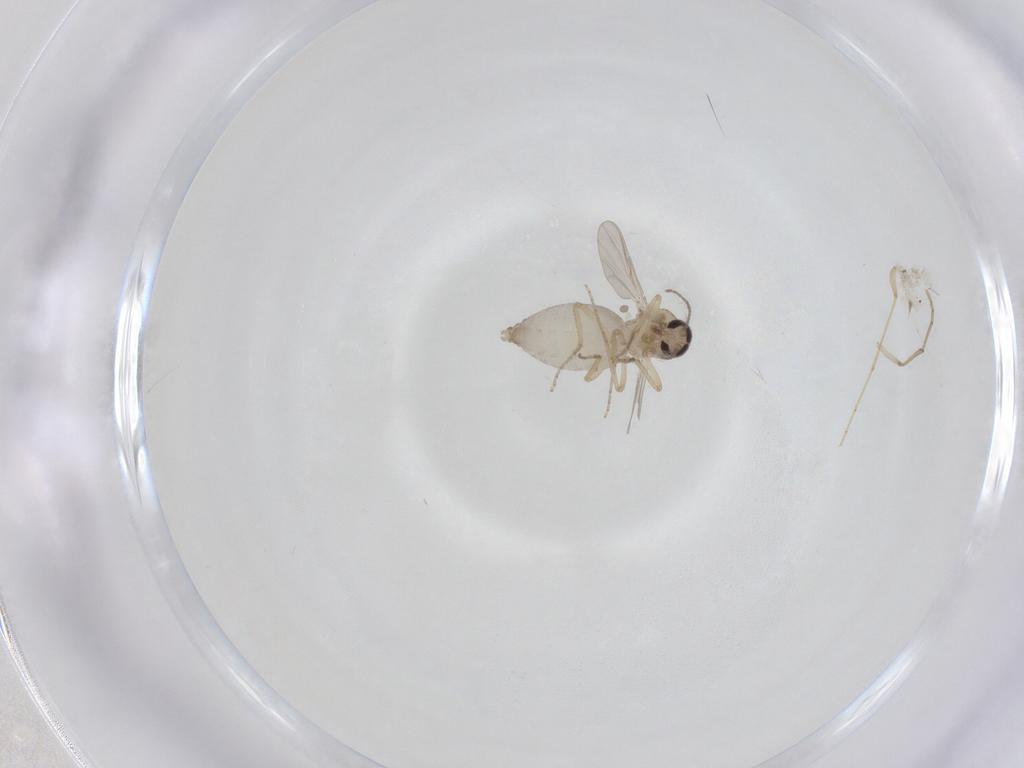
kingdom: Animalia
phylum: Arthropoda
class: Insecta
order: Diptera
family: Ceratopogonidae
